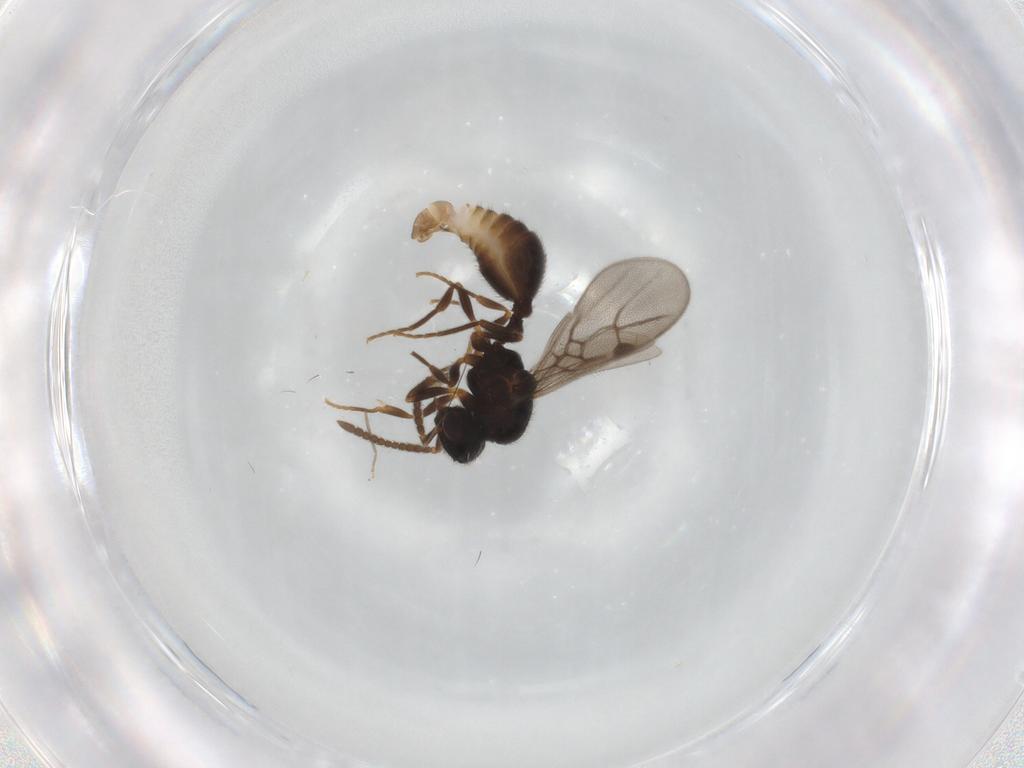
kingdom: Animalia
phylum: Arthropoda
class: Insecta
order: Hymenoptera
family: Formicidae
